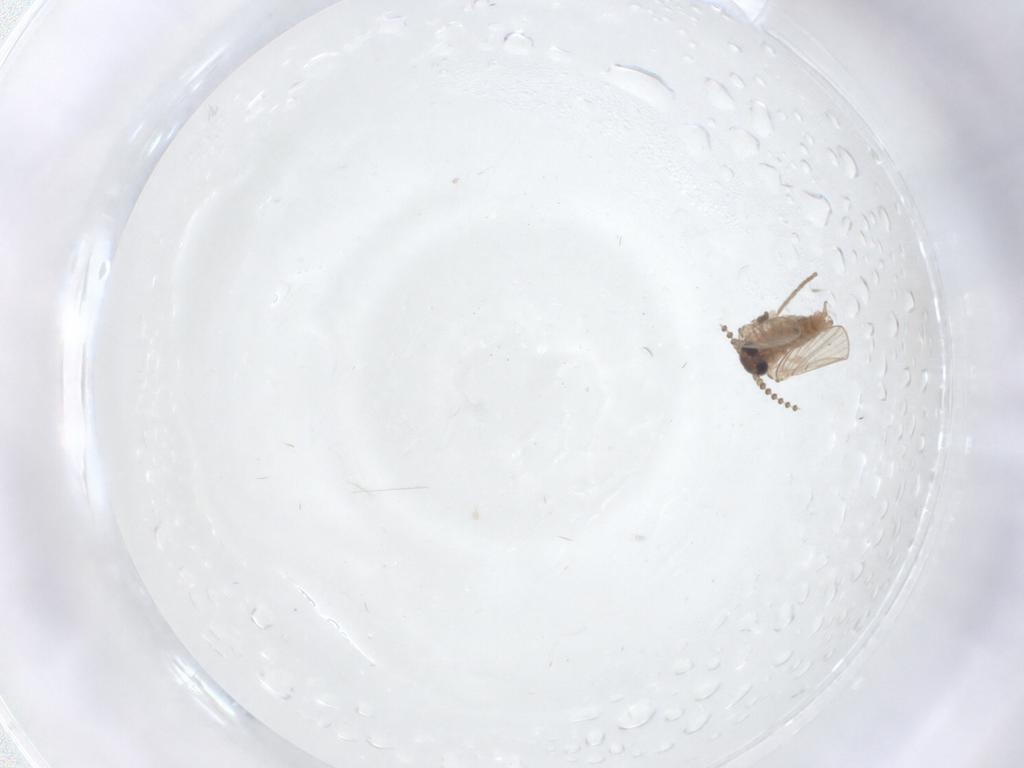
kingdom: Animalia
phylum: Arthropoda
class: Insecta
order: Diptera
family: Psychodidae
